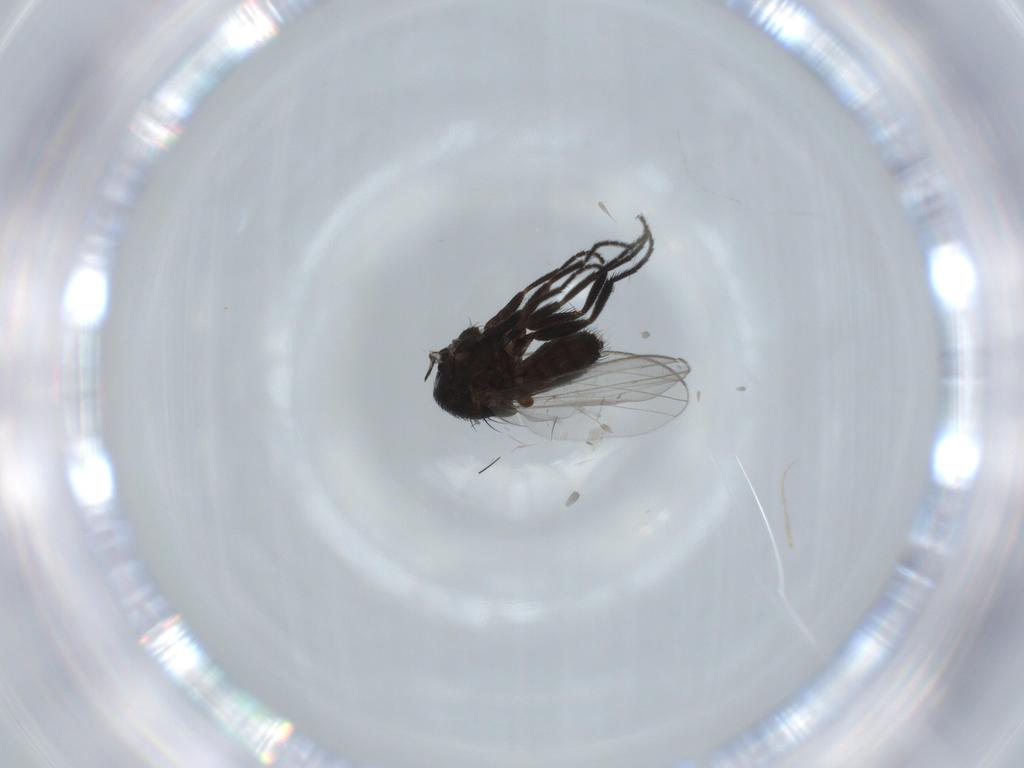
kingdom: Animalia
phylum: Arthropoda
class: Insecta
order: Diptera
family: Milichiidae
